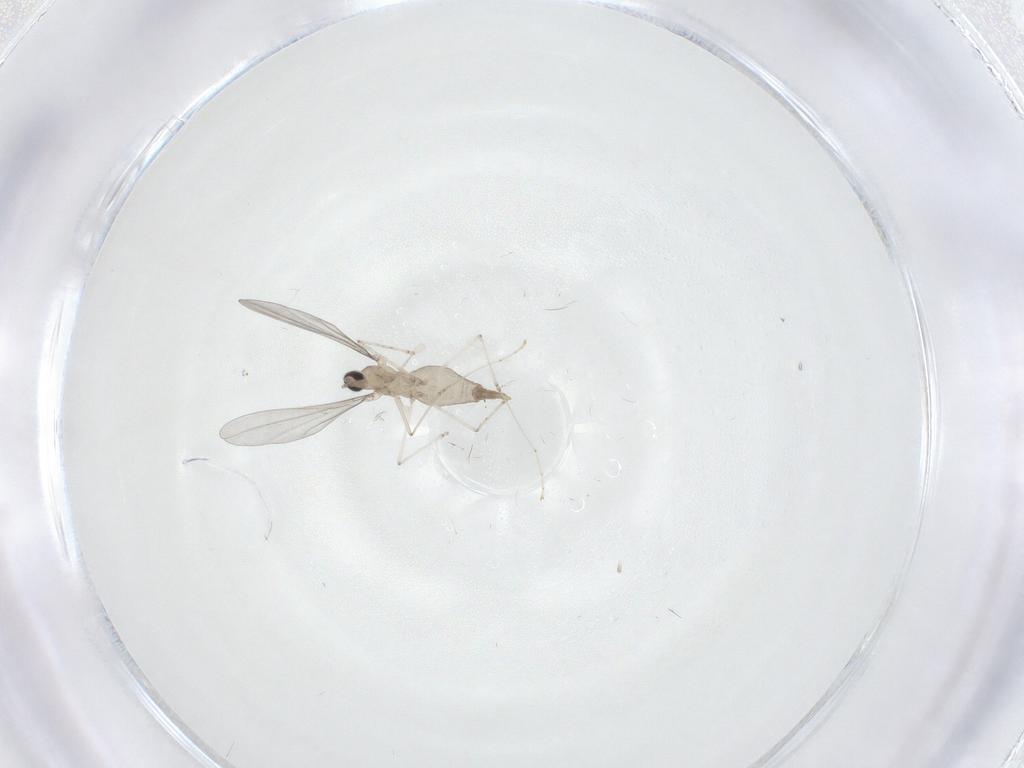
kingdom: Animalia
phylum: Arthropoda
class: Insecta
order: Diptera
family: Cecidomyiidae
